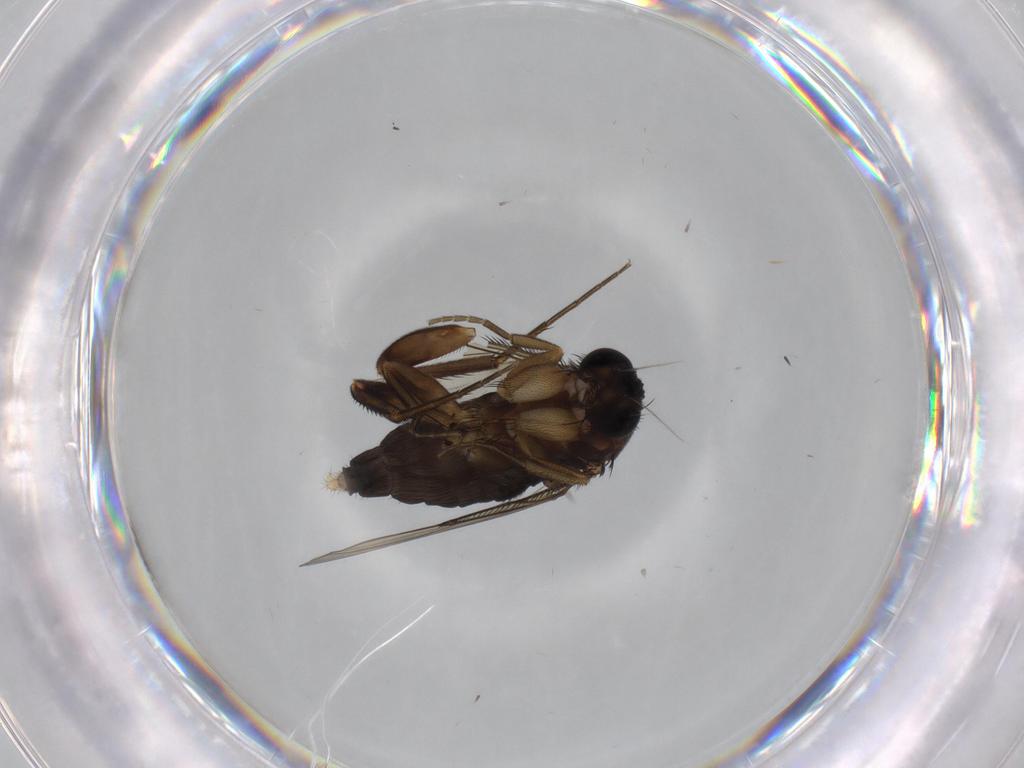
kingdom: Animalia
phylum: Arthropoda
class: Insecta
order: Diptera
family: Phoridae
